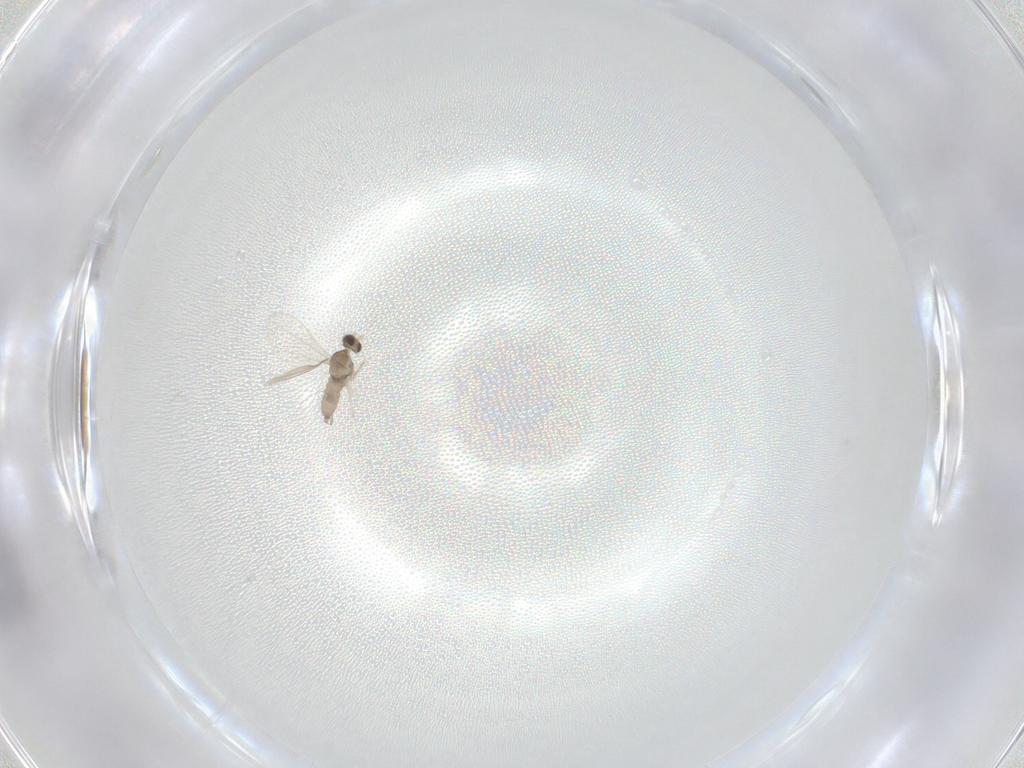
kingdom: Animalia
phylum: Arthropoda
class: Insecta
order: Diptera
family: Cecidomyiidae
